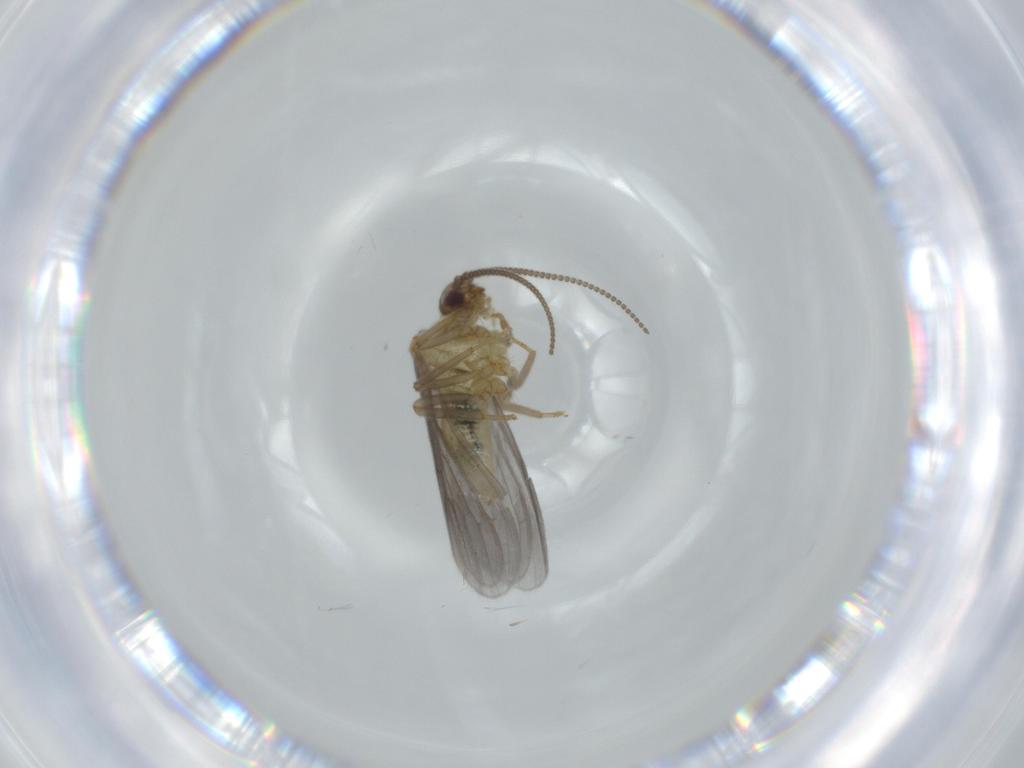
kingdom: Animalia
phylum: Arthropoda
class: Insecta
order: Neuroptera
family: Coniopterygidae
